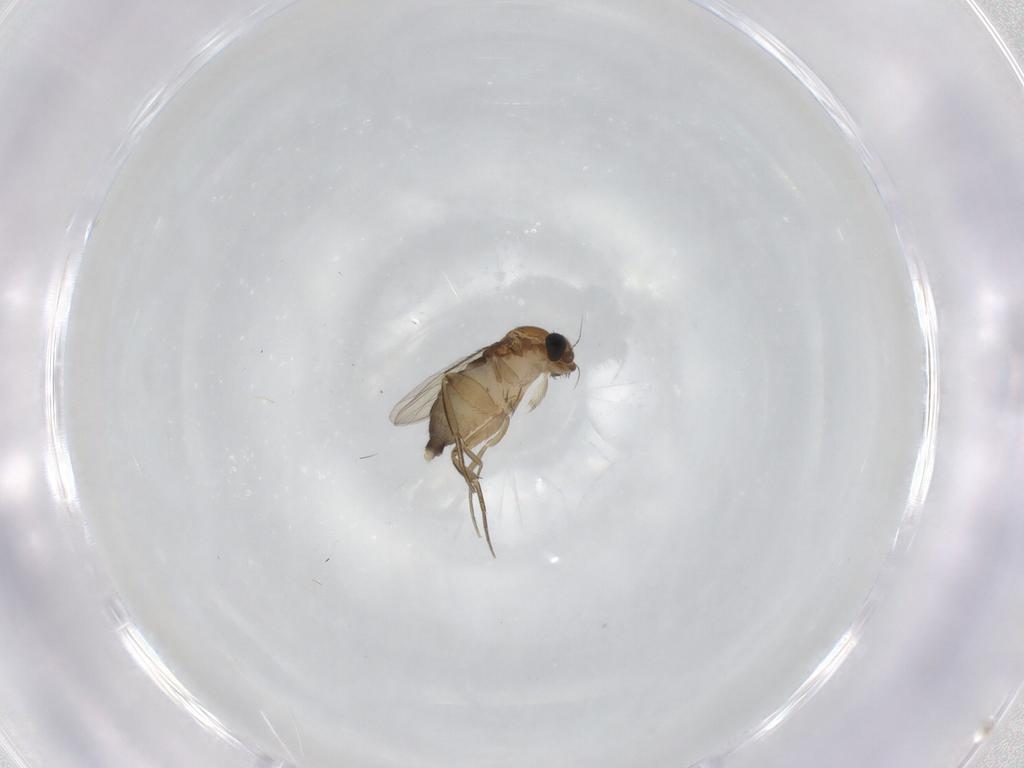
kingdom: Animalia
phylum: Arthropoda
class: Insecta
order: Diptera
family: Phoridae
